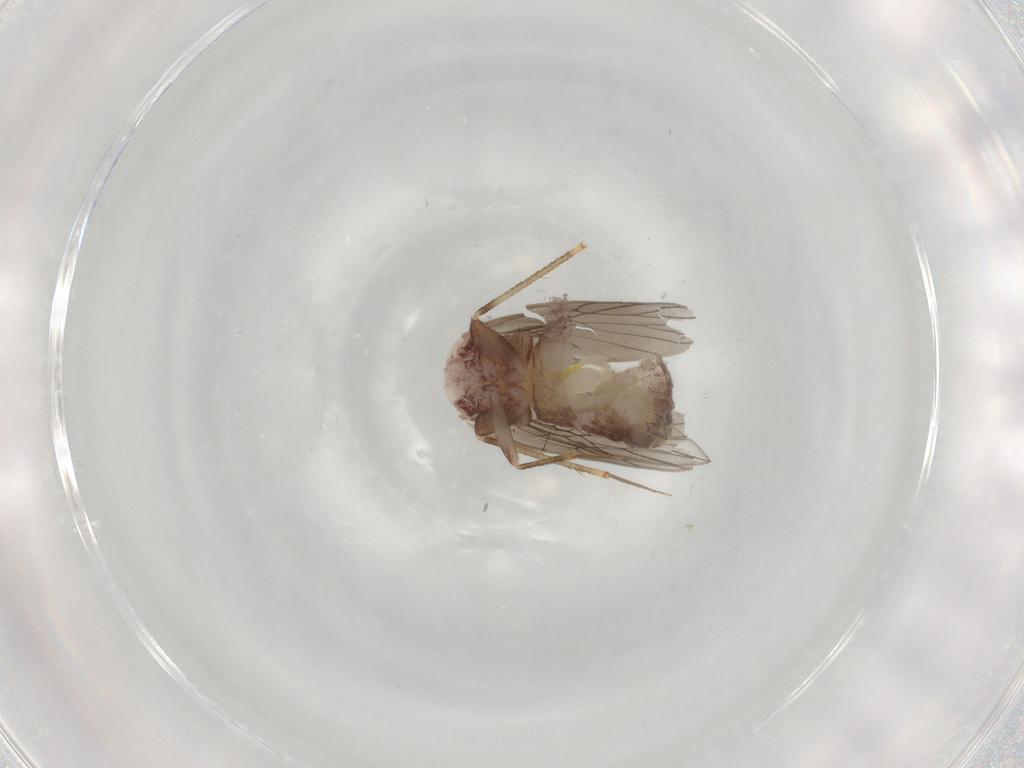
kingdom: Animalia
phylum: Arthropoda
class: Insecta
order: Psocodea
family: Lepidopsocidae
